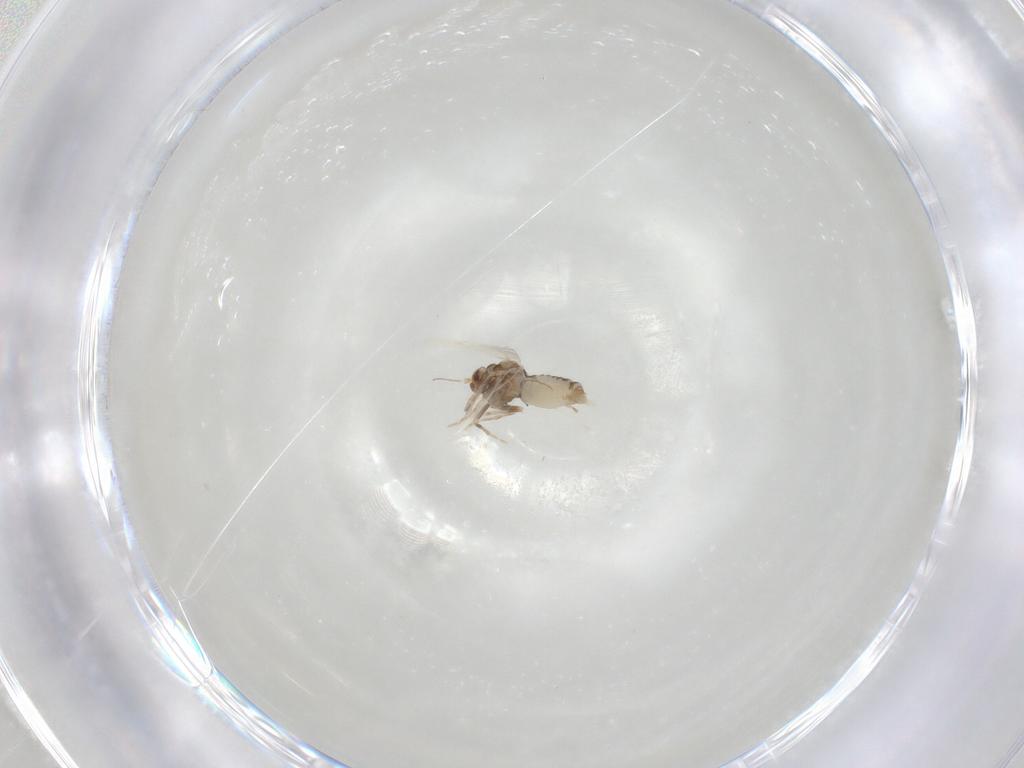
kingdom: Animalia
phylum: Arthropoda
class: Insecta
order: Hemiptera
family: Aleyrodidae
